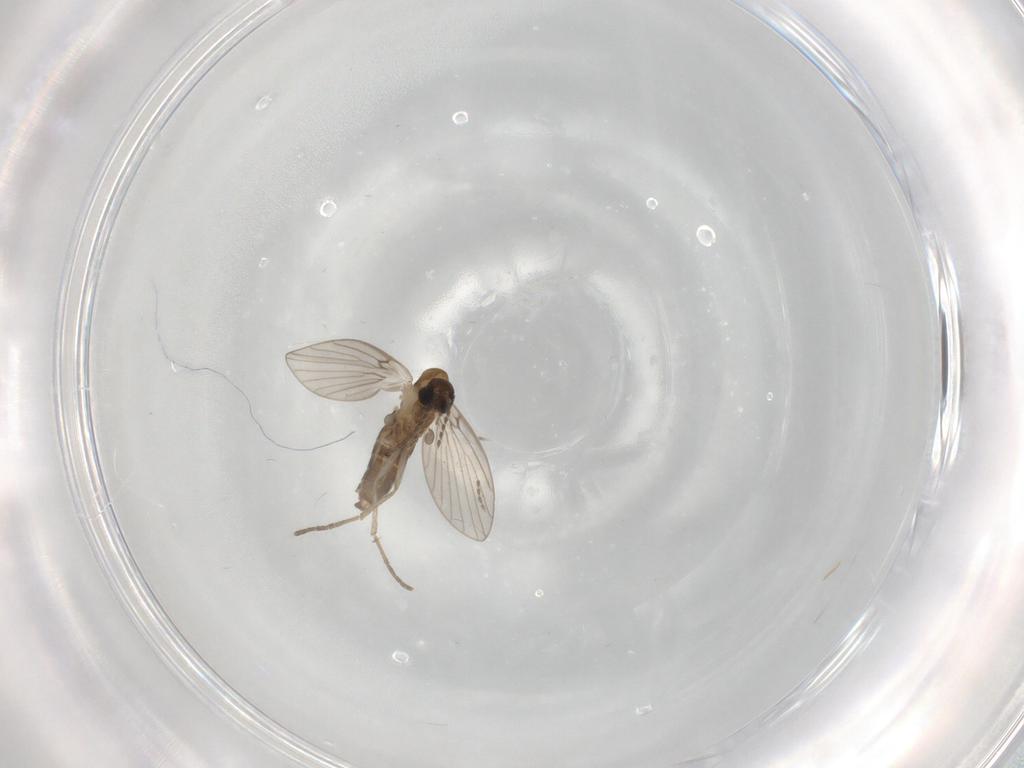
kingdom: Animalia
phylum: Arthropoda
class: Insecta
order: Diptera
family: Psychodidae
